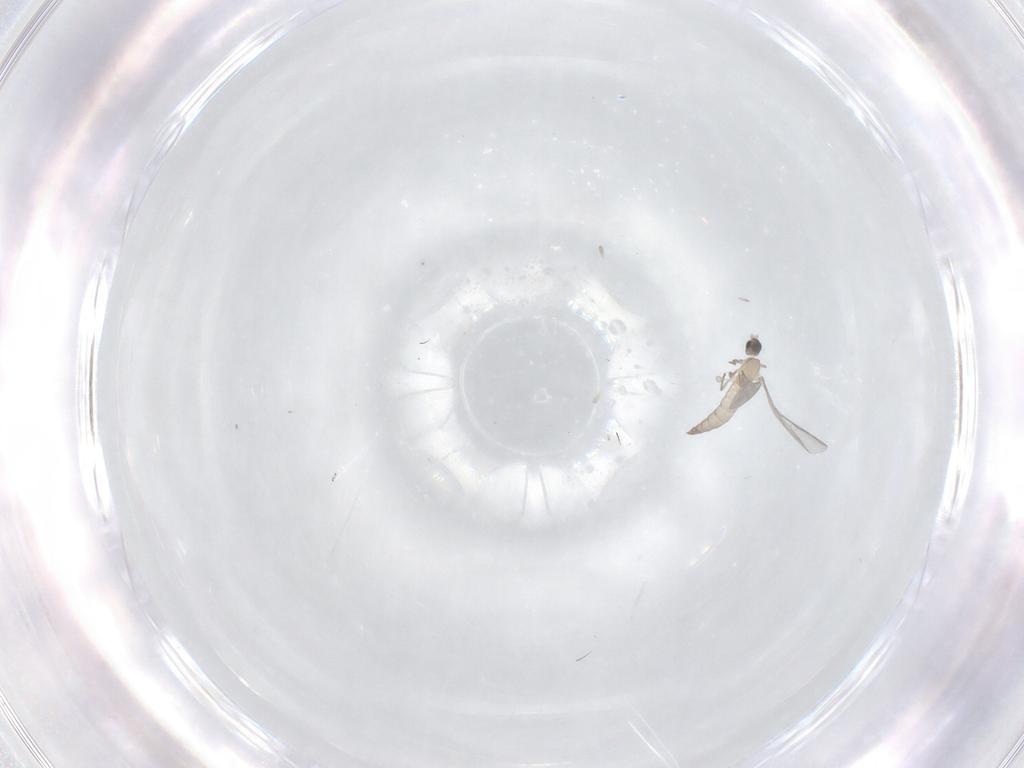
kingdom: Animalia
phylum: Arthropoda
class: Insecta
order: Diptera
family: Cecidomyiidae
